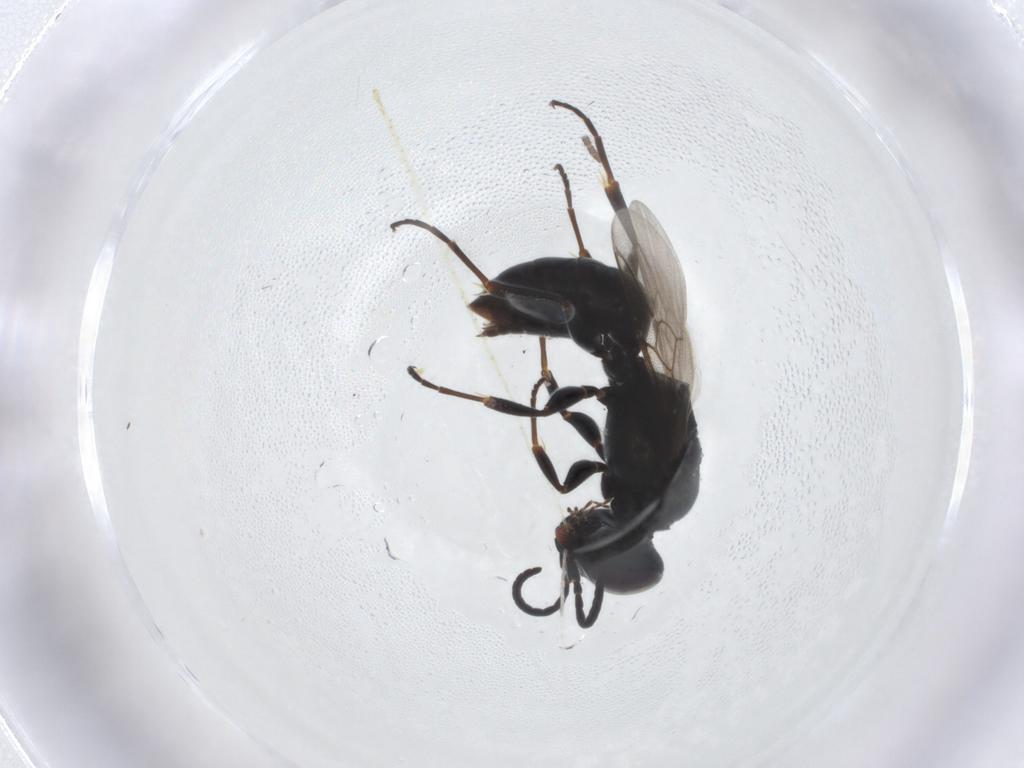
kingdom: Animalia
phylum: Arthropoda
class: Insecta
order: Hymenoptera
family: Crabronidae
